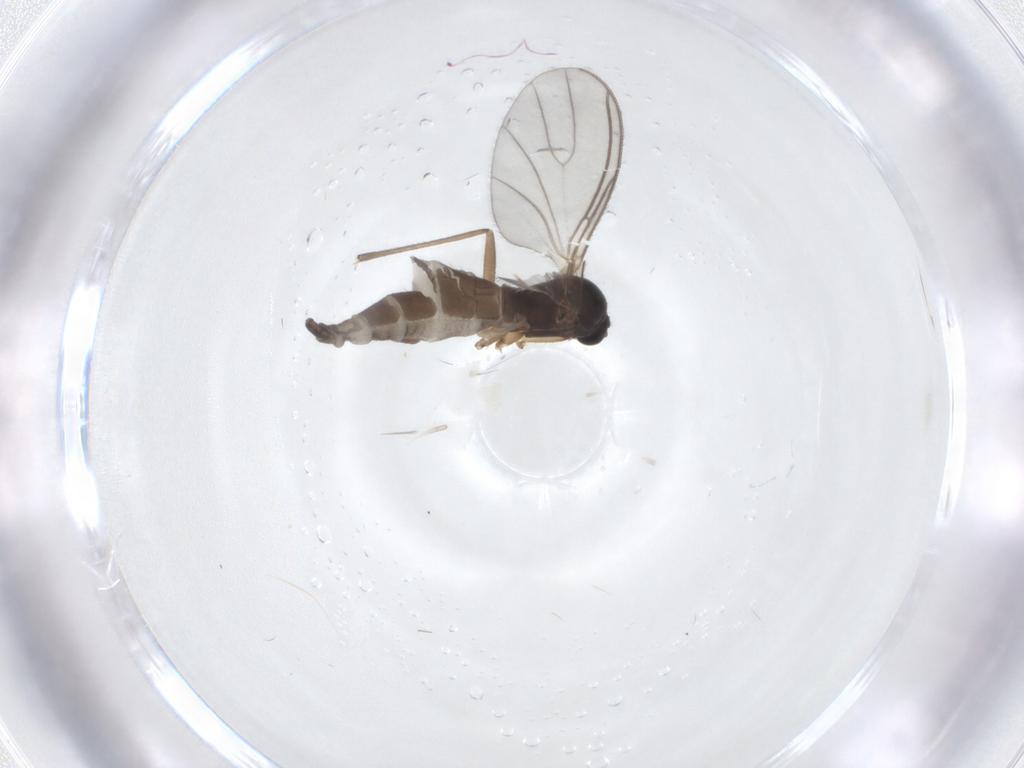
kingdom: Animalia
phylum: Arthropoda
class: Insecta
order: Diptera
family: Sciaridae
